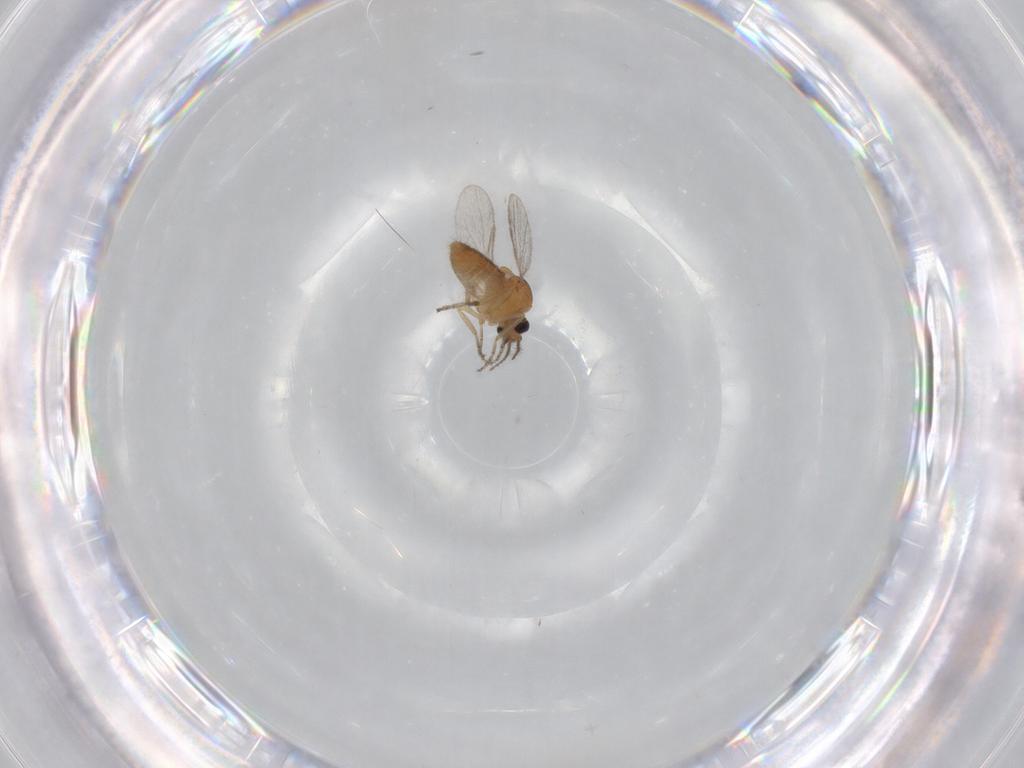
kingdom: Animalia
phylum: Arthropoda
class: Insecta
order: Diptera
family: Ceratopogonidae
